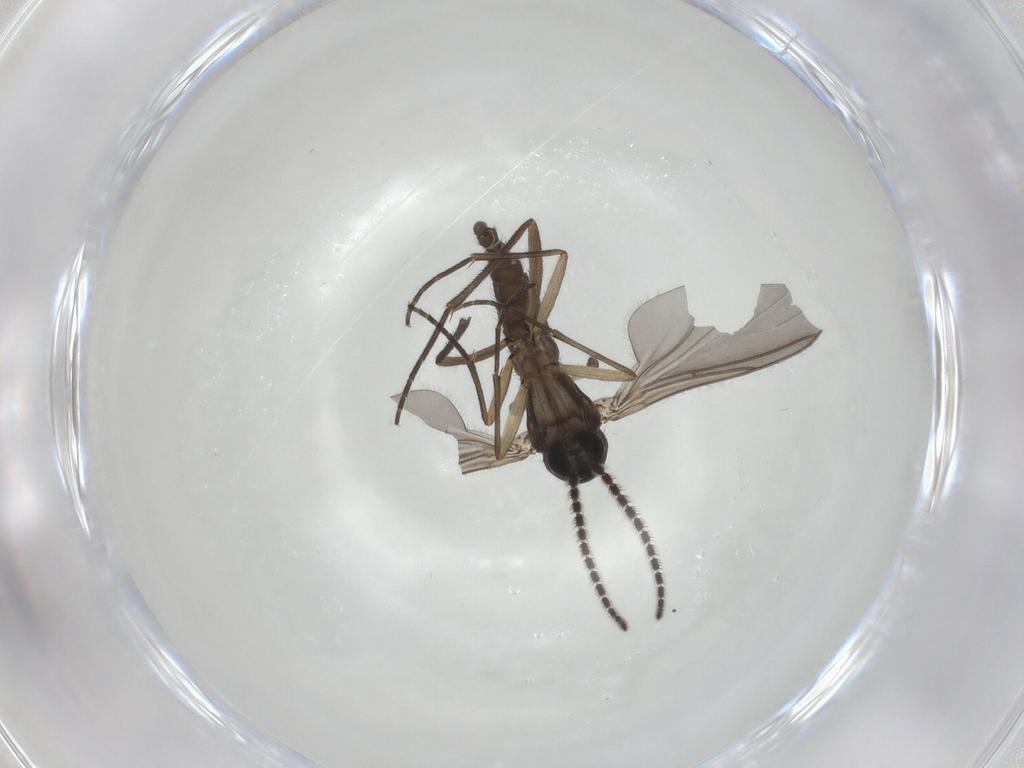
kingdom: Animalia
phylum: Arthropoda
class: Insecta
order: Diptera
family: Sciaridae
